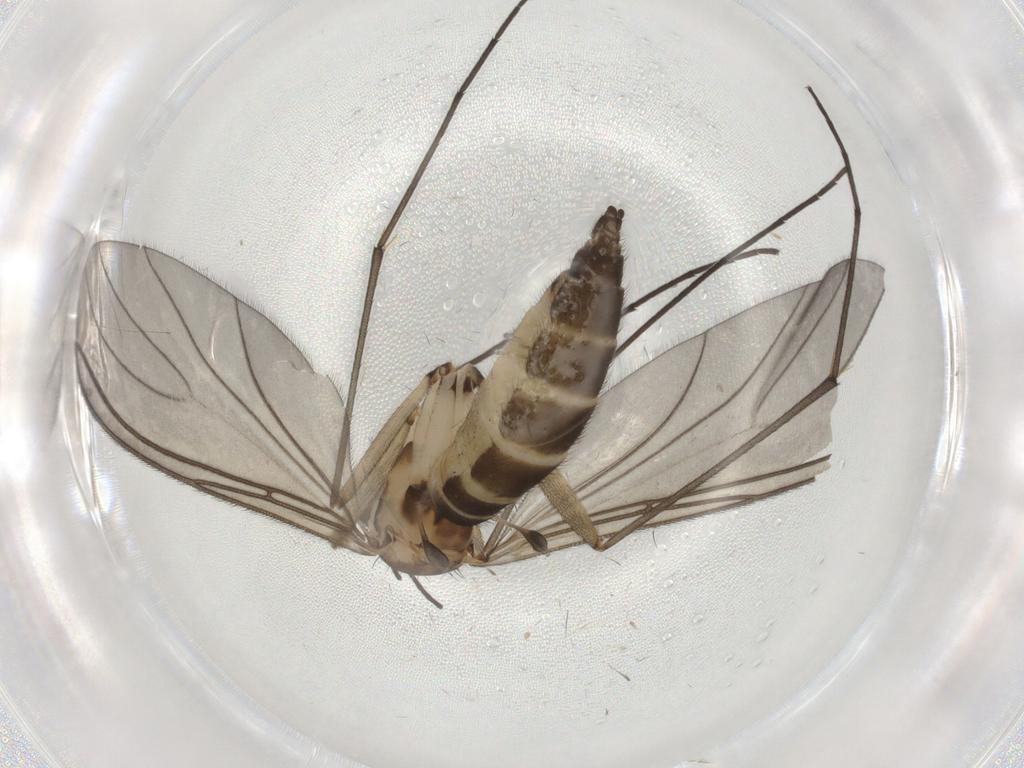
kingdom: Animalia
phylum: Arthropoda
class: Insecta
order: Diptera
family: Sciaridae
